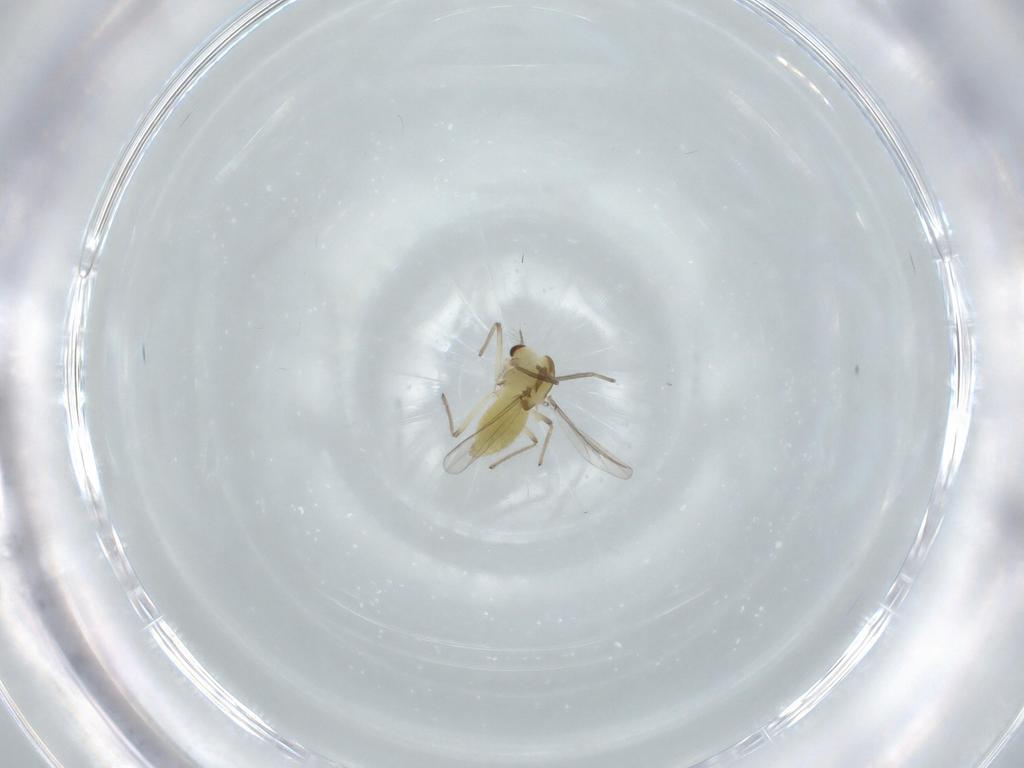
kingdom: Animalia
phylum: Arthropoda
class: Insecta
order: Diptera
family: Chironomidae
